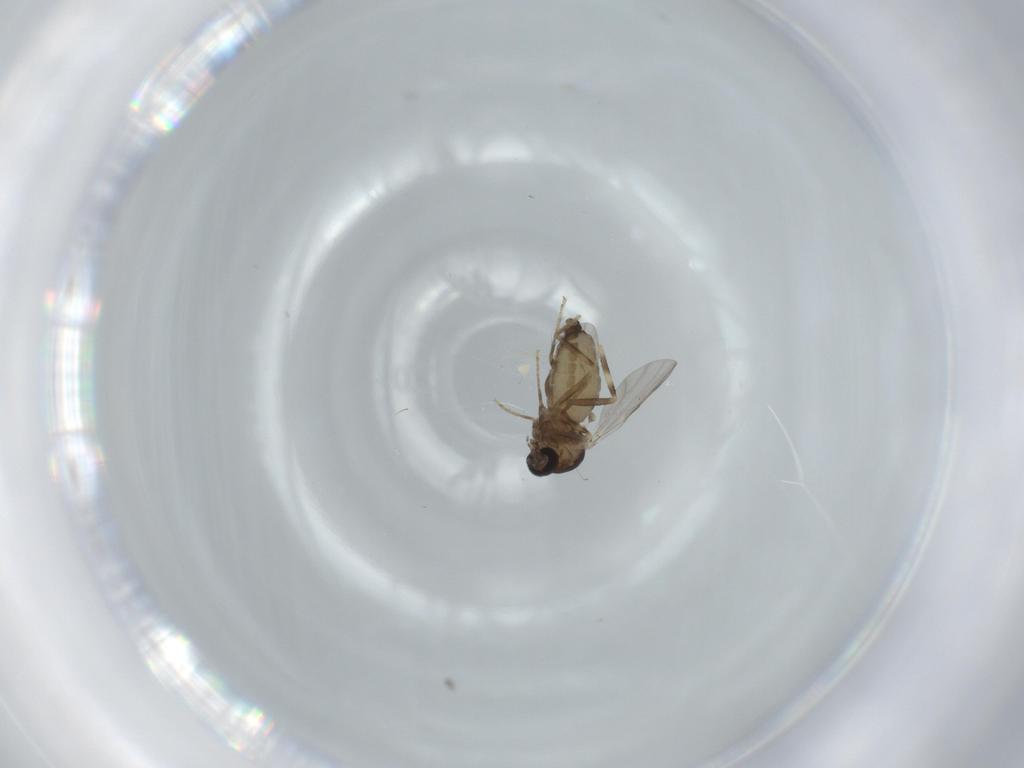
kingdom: Animalia
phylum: Arthropoda
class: Insecta
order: Diptera
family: Ceratopogonidae
